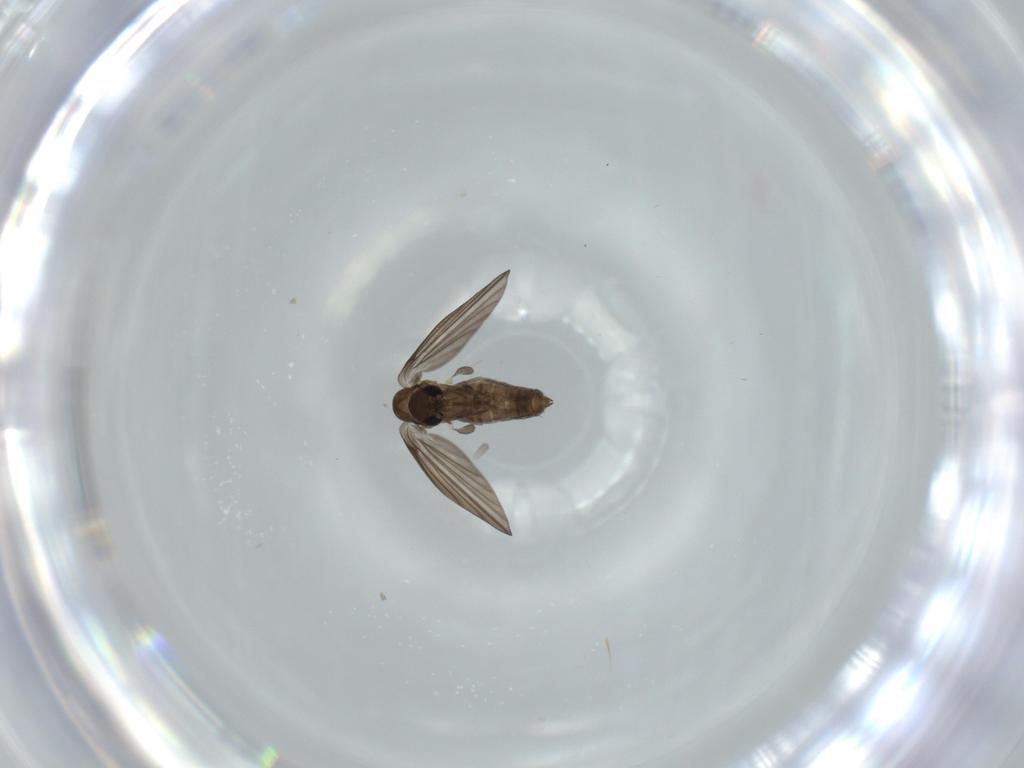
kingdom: Animalia
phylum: Arthropoda
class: Insecta
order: Diptera
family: Psychodidae
